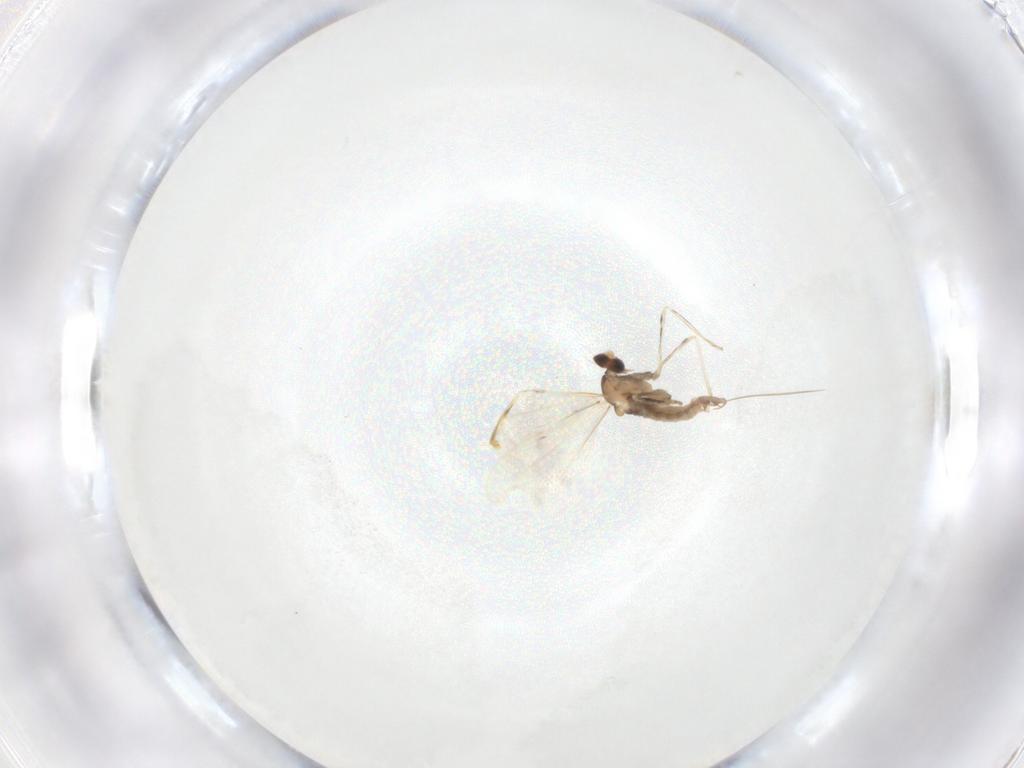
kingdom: Animalia
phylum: Arthropoda
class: Insecta
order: Diptera
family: Cecidomyiidae
